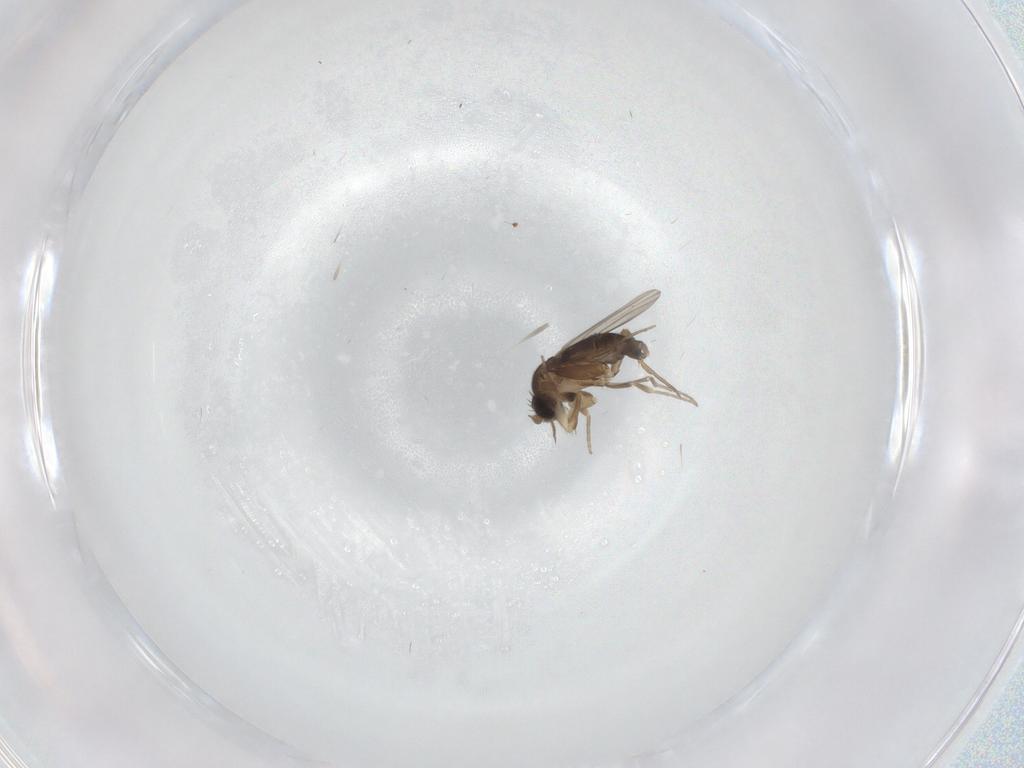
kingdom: Animalia
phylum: Arthropoda
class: Insecta
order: Diptera
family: Phoridae
